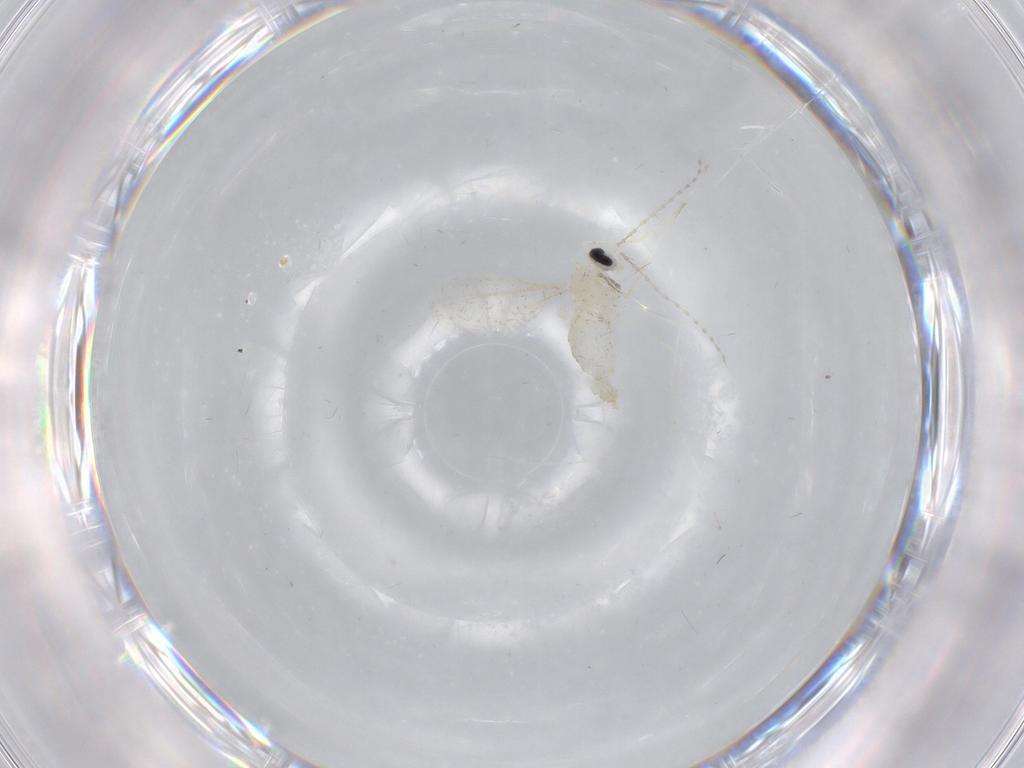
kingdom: Animalia
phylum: Arthropoda
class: Insecta
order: Diptera
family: Cecidomyiidae
